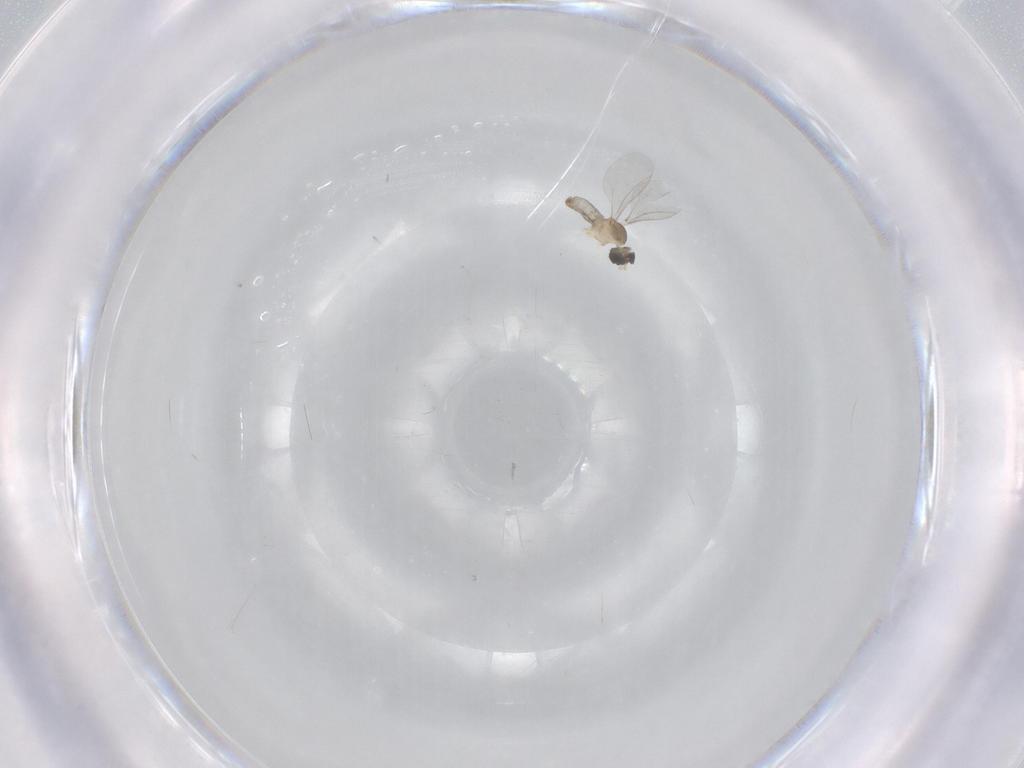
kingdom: Animalia
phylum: Arthropoda
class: Insecta
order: Diptera
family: Cecidomyiidae
